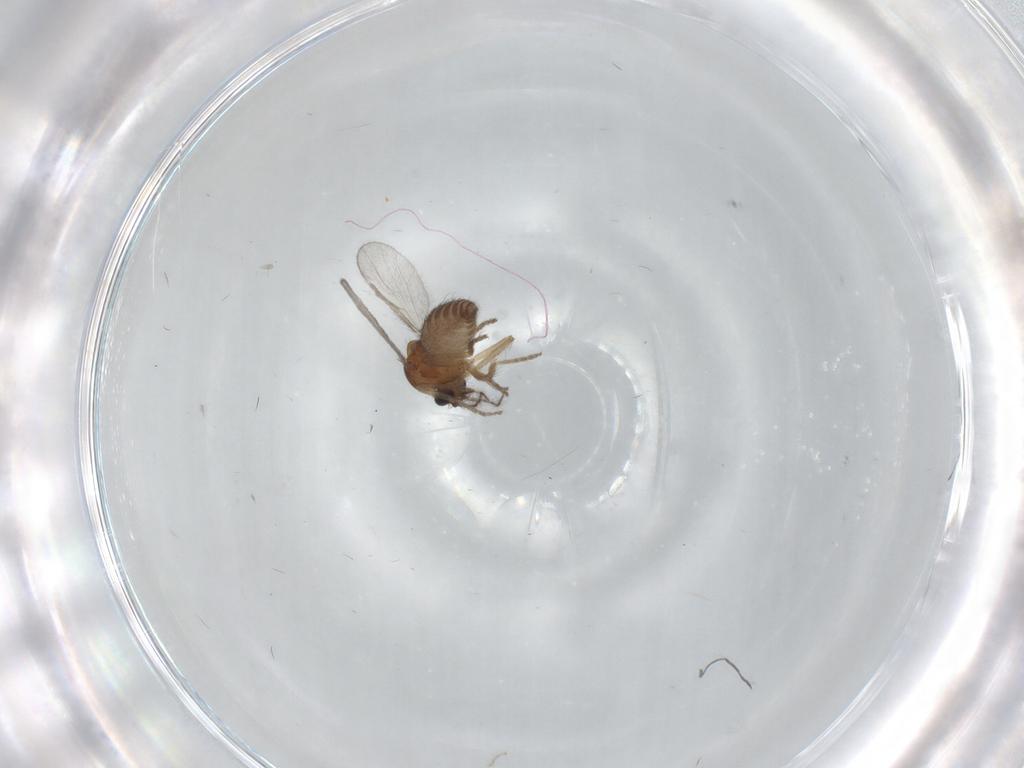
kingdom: Animalia
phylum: Arthropoda
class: Insecta
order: Diptera
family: Ceratopogonidae
